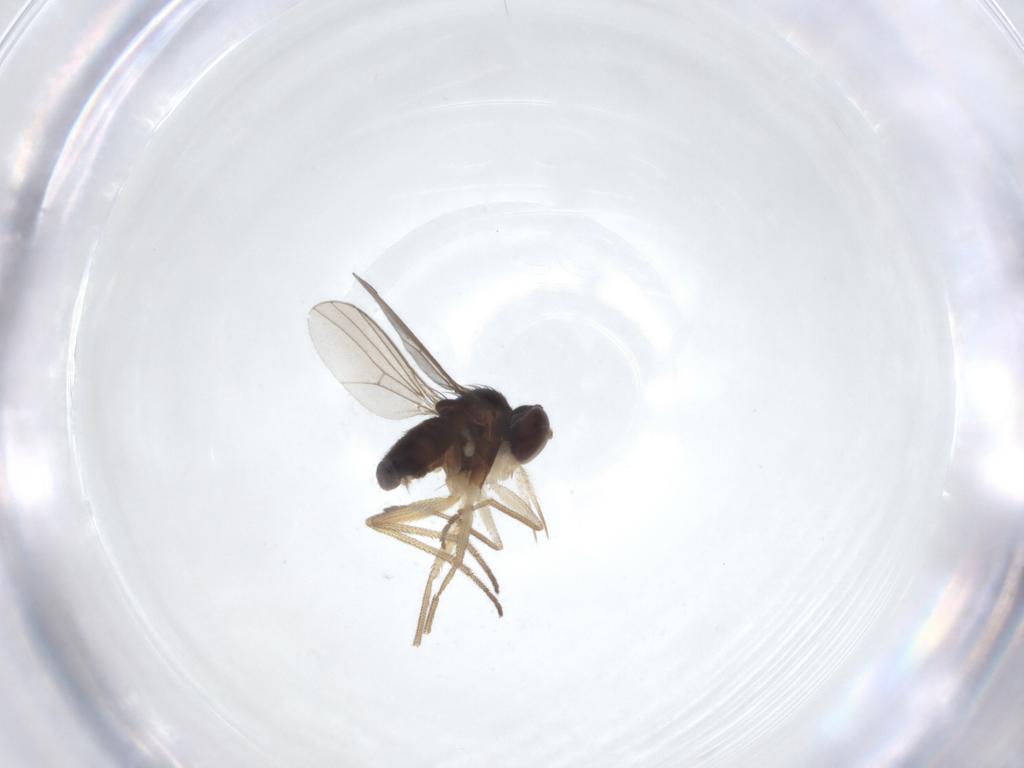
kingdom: Animalia
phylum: Arthropoda
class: Insecta
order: Diptera
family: Dolichopodidae
